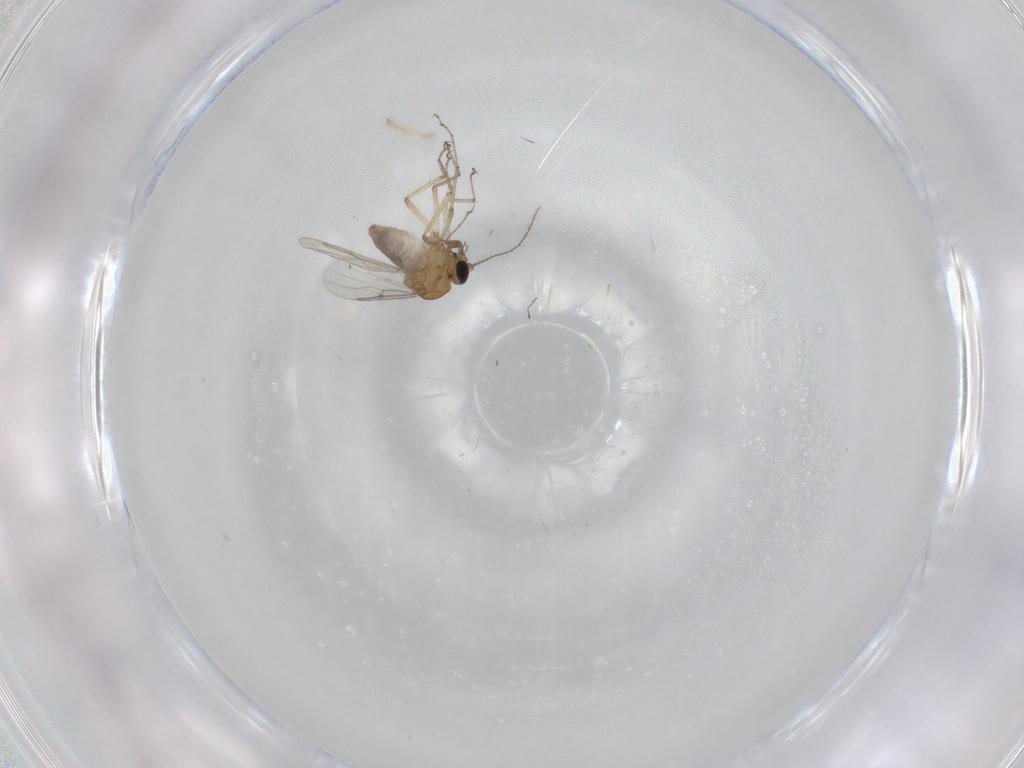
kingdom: Animalia
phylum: Arthropoda
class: Insecta
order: Diptera
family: Ceratopogonidae
